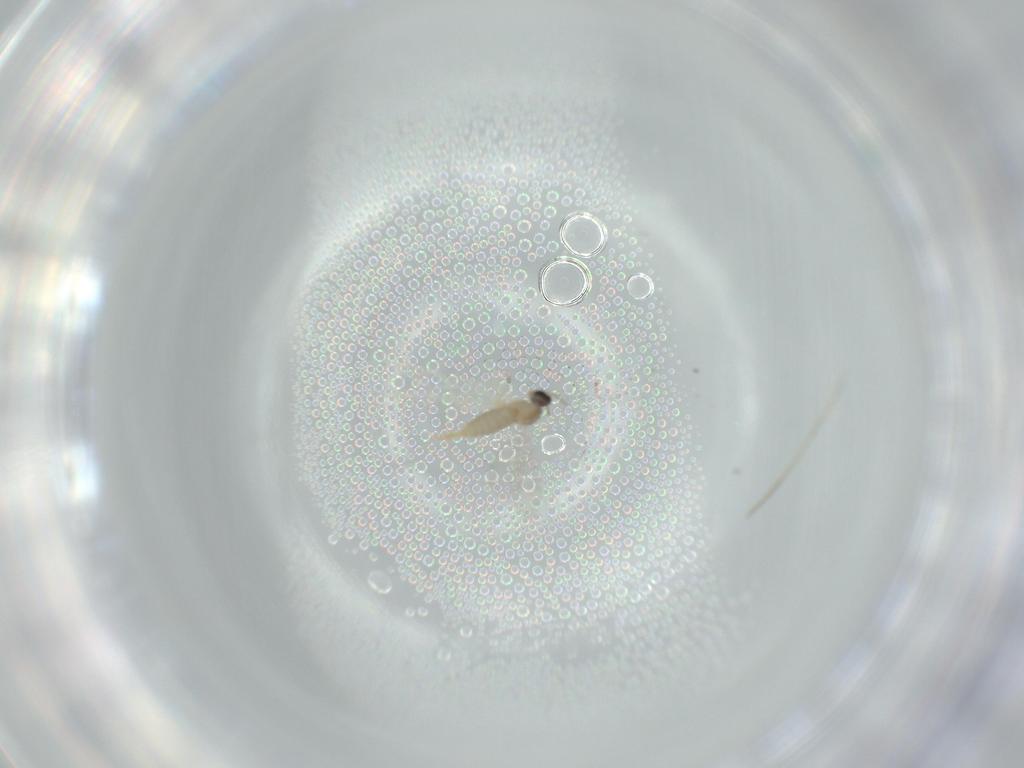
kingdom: Animalia
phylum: Arthropoda
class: Insecta
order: Diptera
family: Cecidomyiidae
